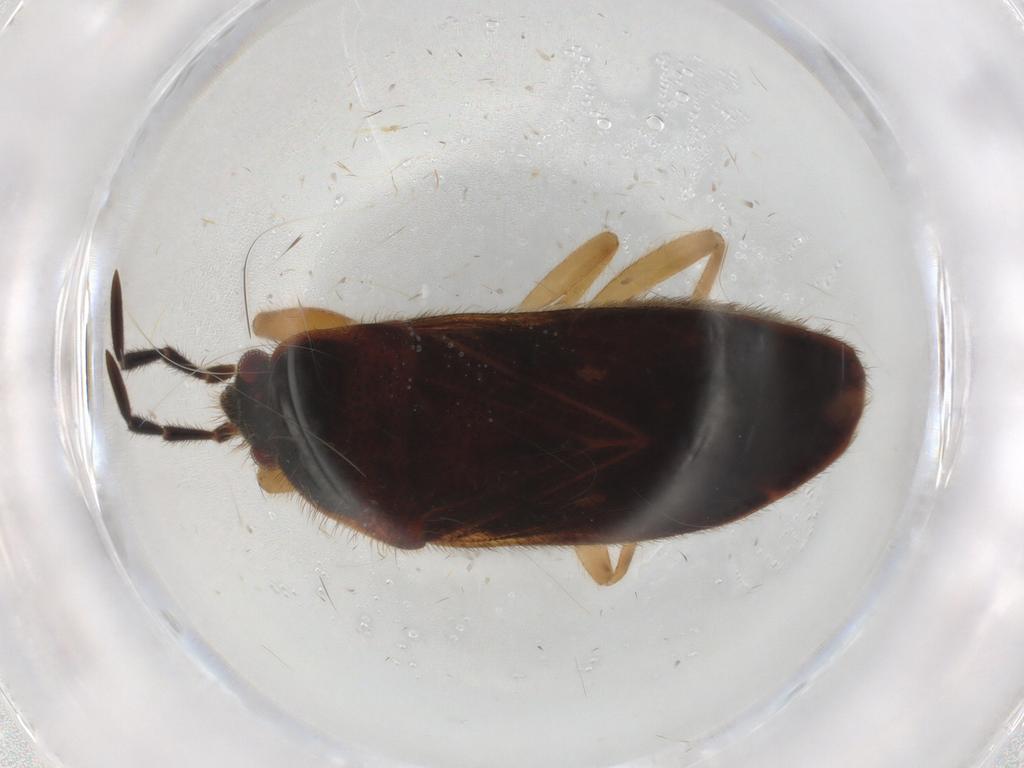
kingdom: Animalia
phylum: Arthropoda
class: Insecta
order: Hemiptera
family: Rhyparochromidae
